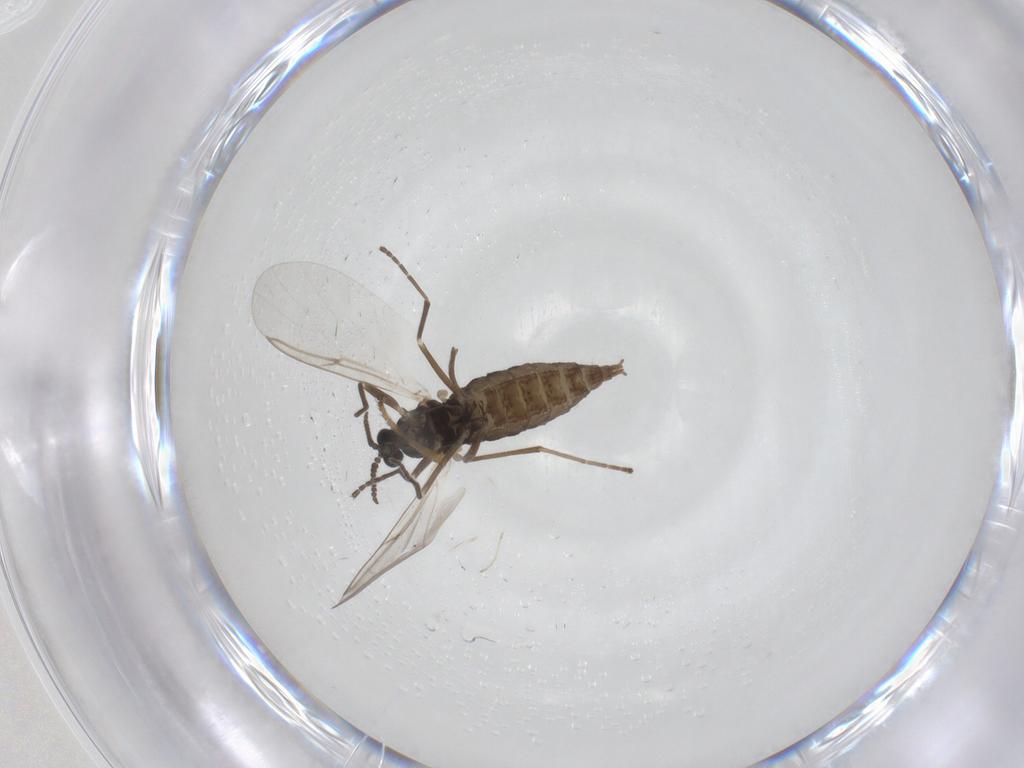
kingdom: Animalia
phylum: Arthropoda
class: Insecta
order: Diptera
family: Cecidomyiidae
